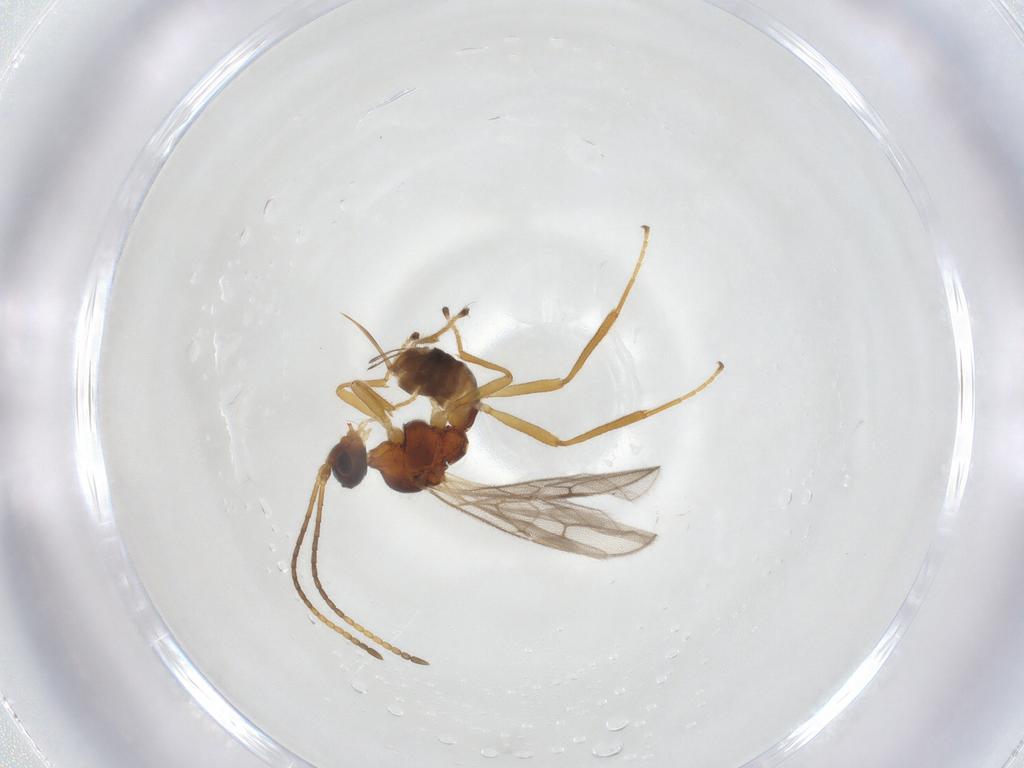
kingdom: Animalia
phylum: Arthropoda
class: Insecta
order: Hymenoptera
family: Braconidae
